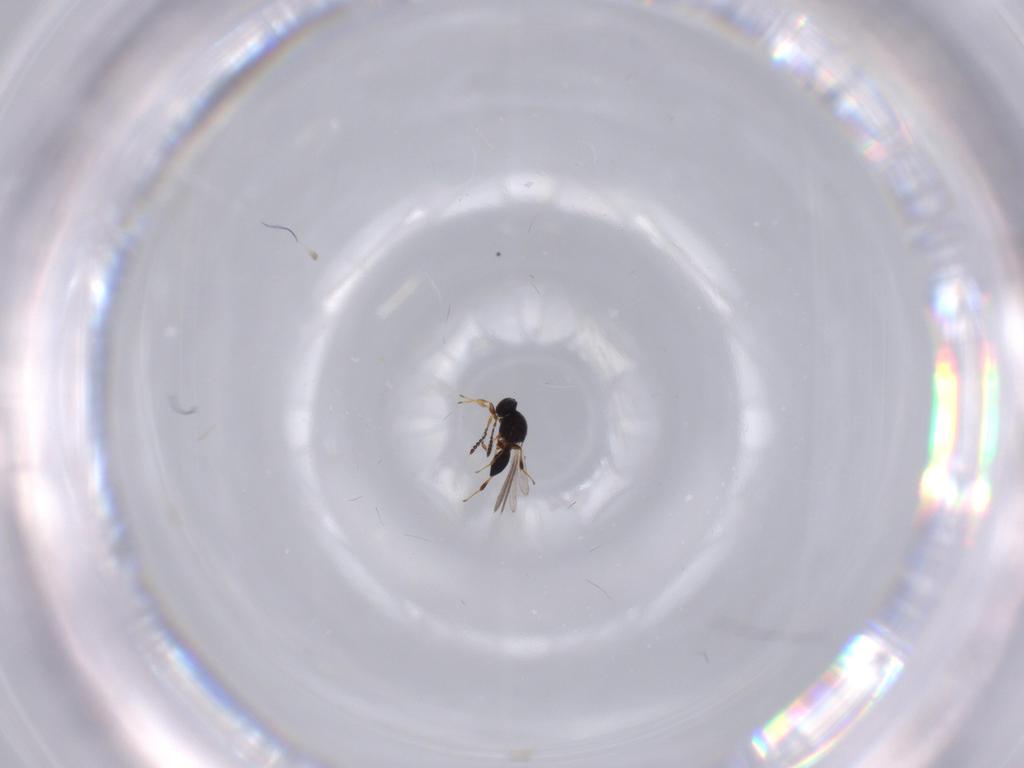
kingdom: Animalia
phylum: Arthropoda
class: Insecta
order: Hymenoptera
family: Platygastridae
